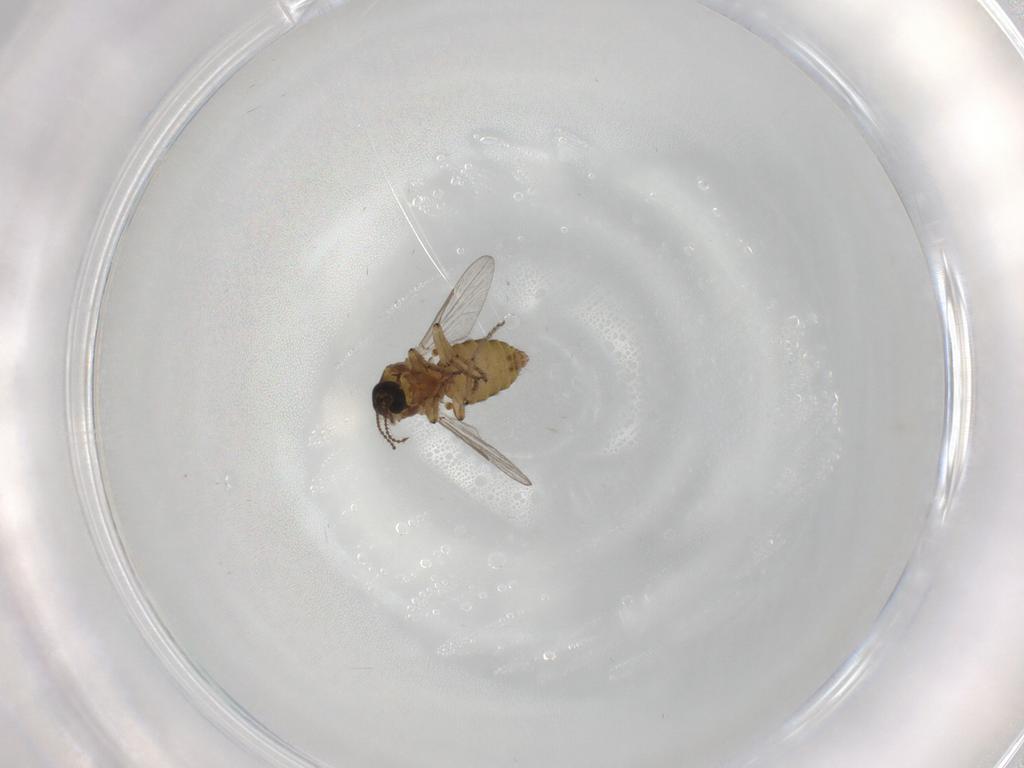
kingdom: Animalia
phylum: Arthropoda
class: Insecta
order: Diptera
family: Ceratopogonidae
